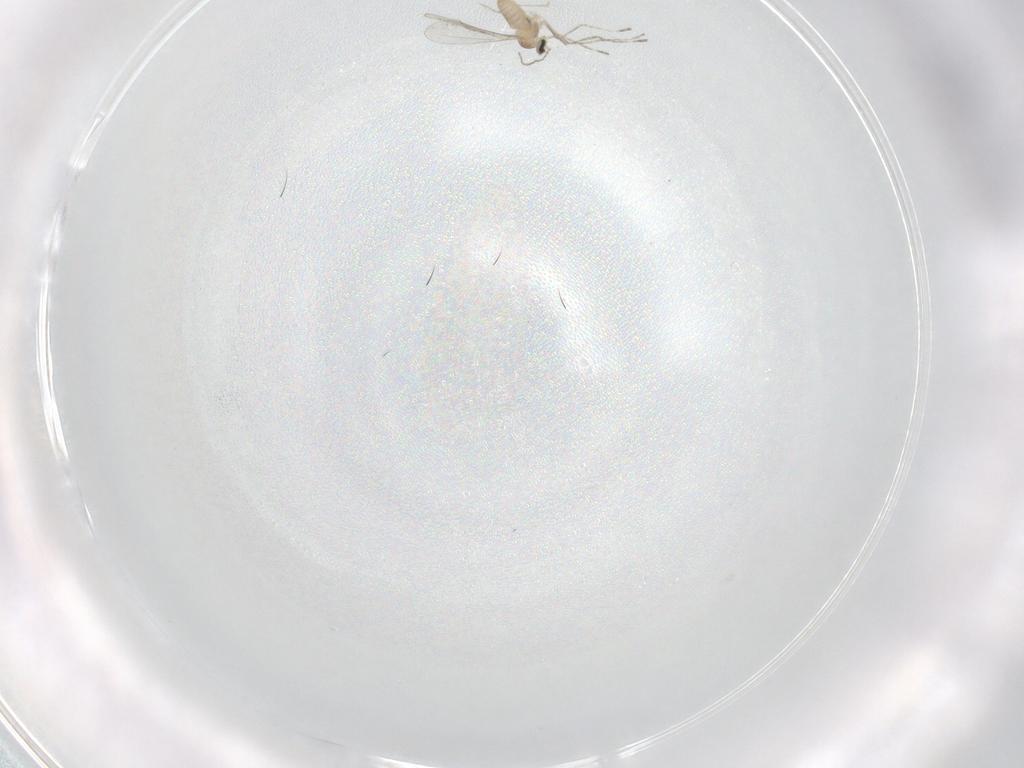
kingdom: Animalia
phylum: Arthropoda
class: Insecta
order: Diptera
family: Cecidomyiidae
